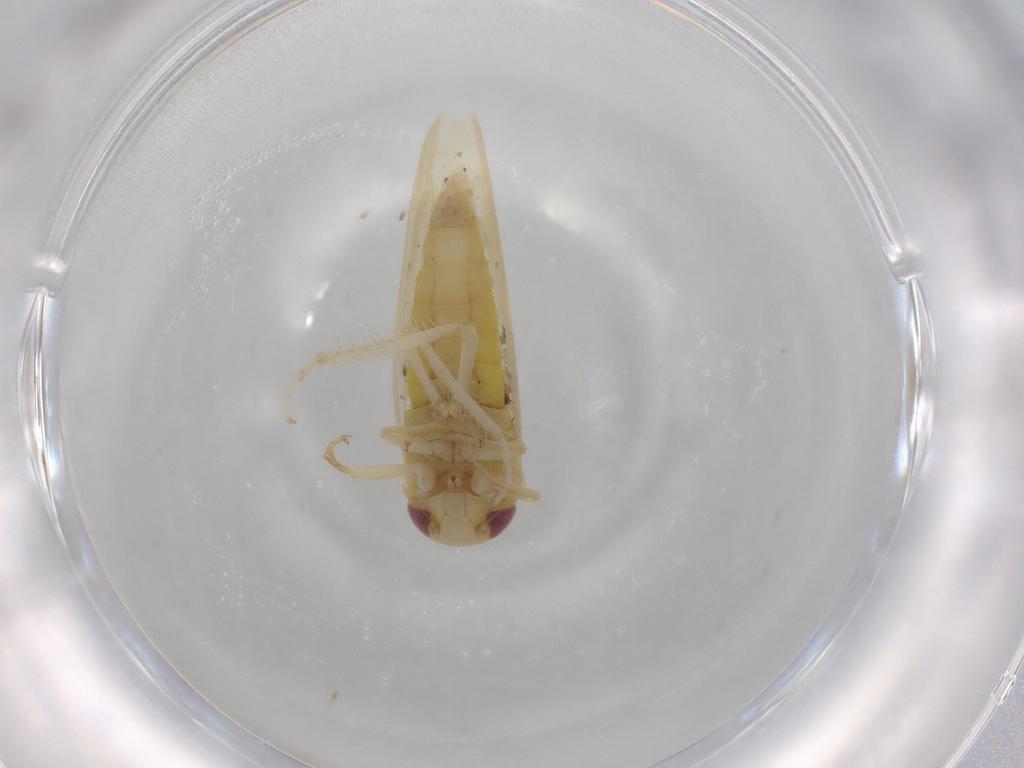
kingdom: Animalia
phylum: Arthropoda
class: Insecta
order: Hemiptera
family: Cicadellidae
